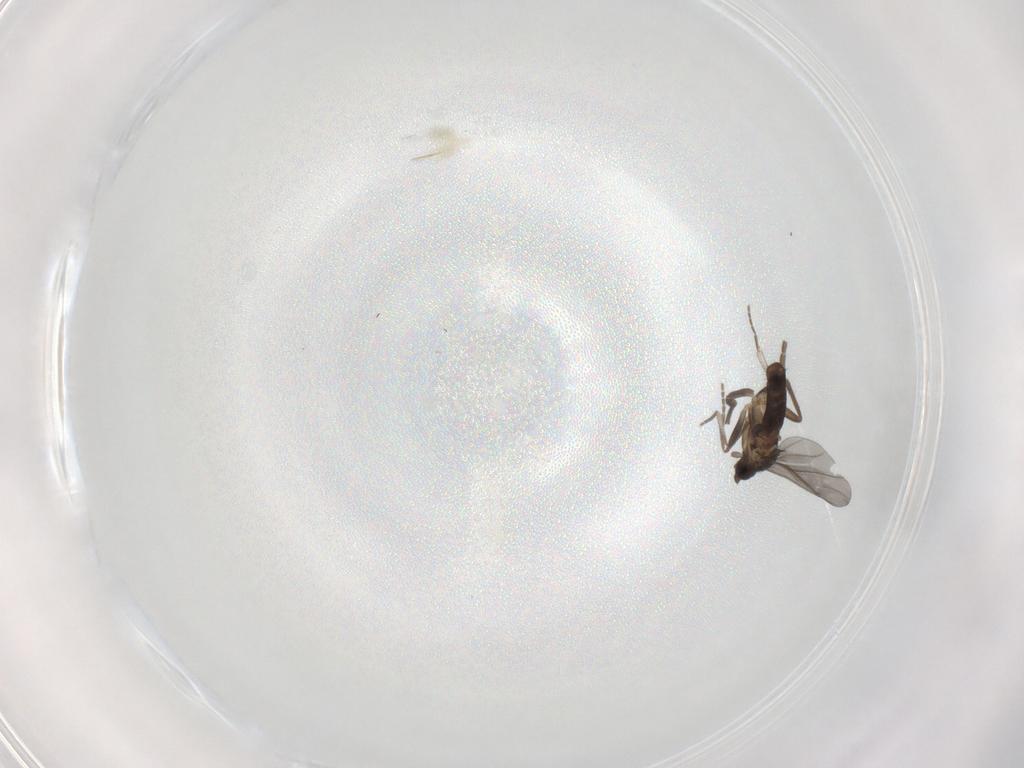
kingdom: Animalia
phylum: Arthropoda
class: Insecta
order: Diptera
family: Phoridae
